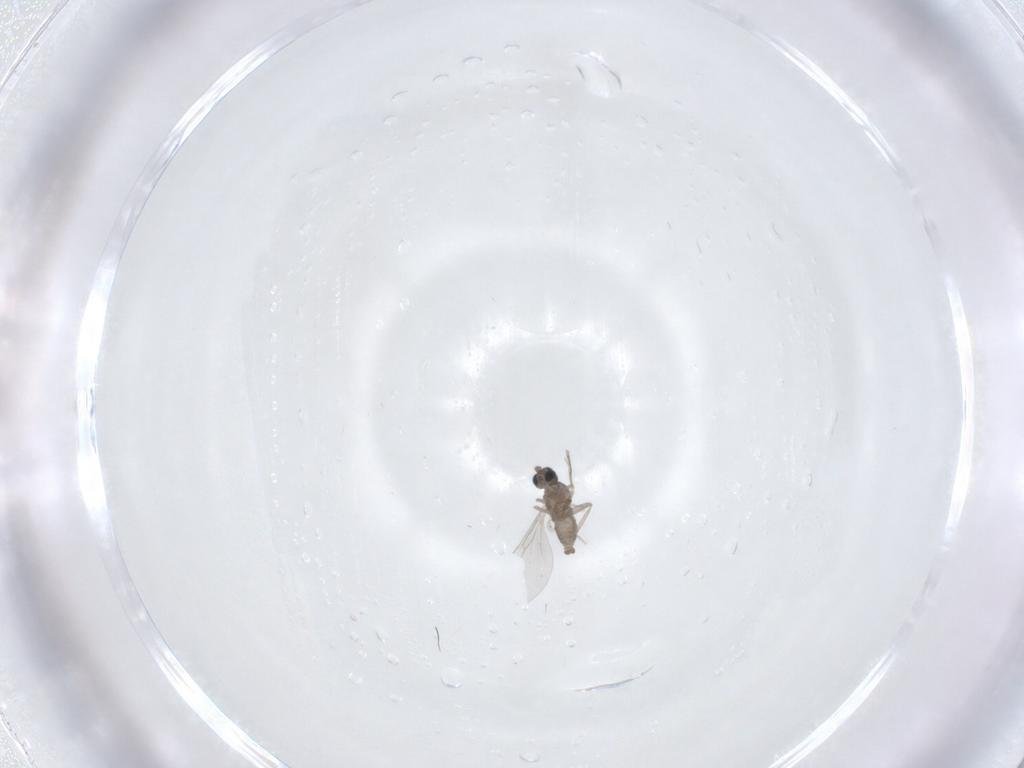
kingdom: Animalia
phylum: Arthropoda
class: Insecta
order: Diptera
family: Cecidomyiidae
